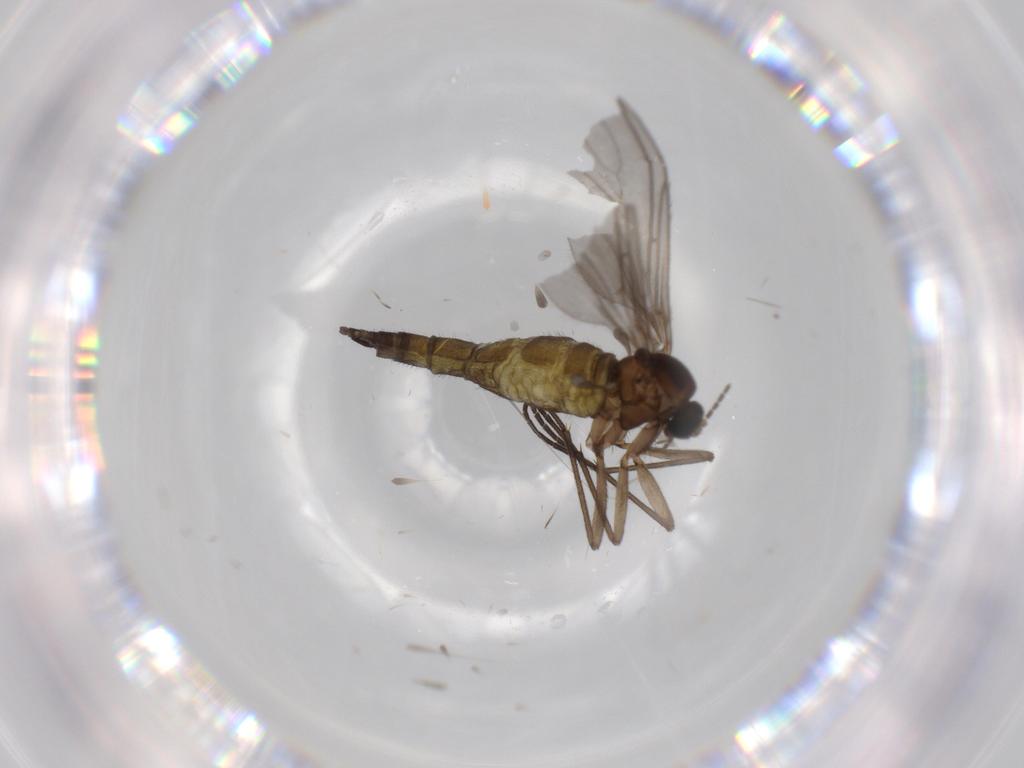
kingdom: Animalia
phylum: Arthropoda
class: Insecta
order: Diptera
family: Sciaridae
